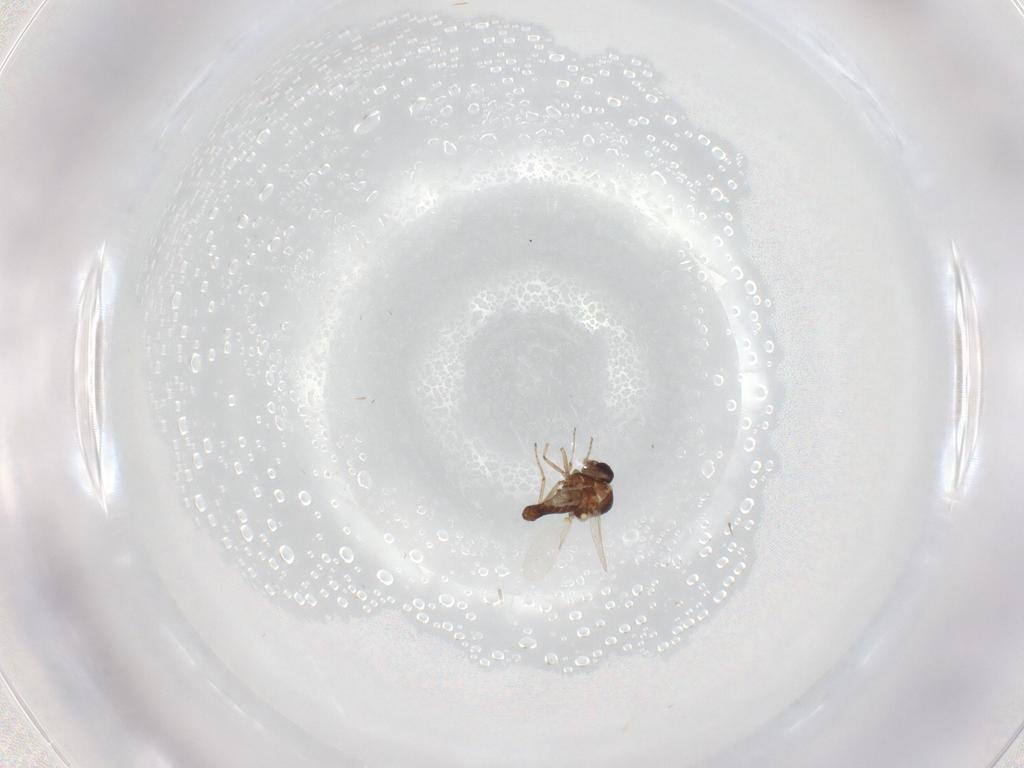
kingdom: Animalia
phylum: Arthropoda
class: Insecta
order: Diptera
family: Ceratopogonidae
